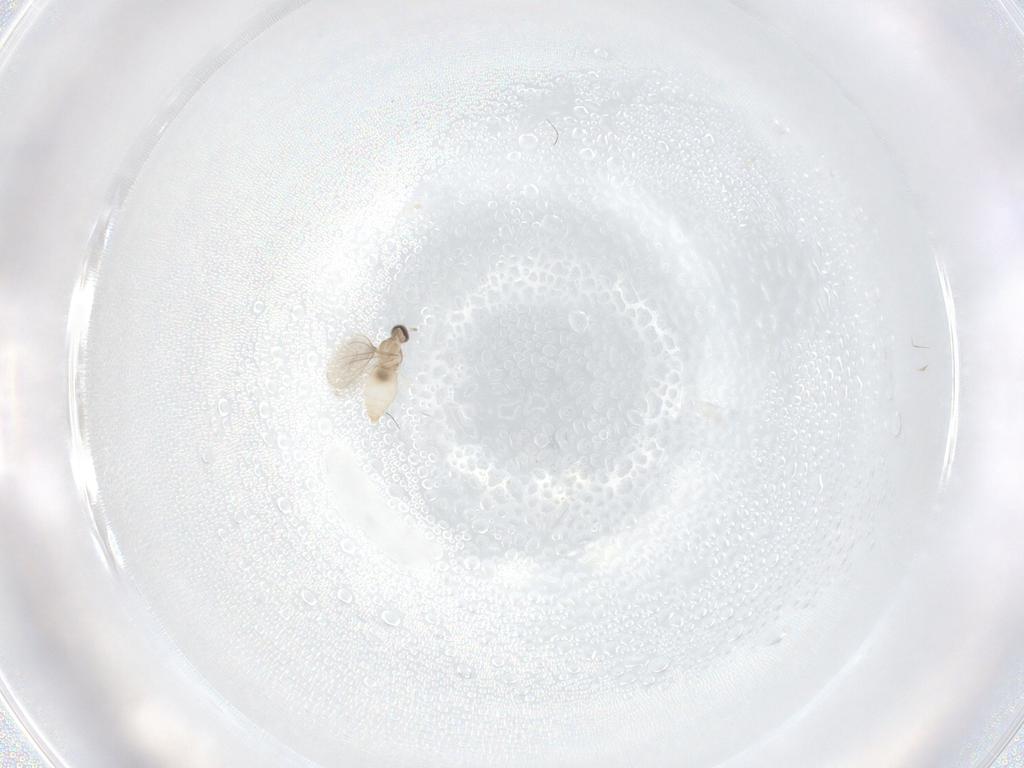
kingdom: Animalia
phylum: Arthropoda
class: Insecta
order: Diptera
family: Cecidomyiidae
